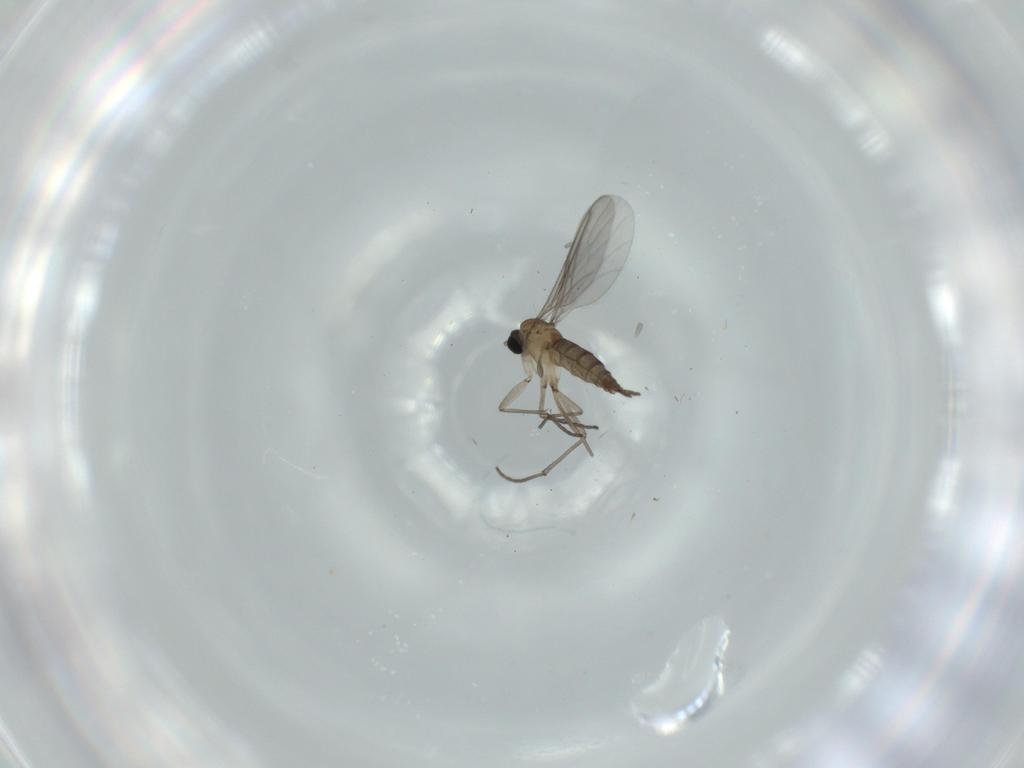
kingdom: Animalia
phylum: Arthropoda
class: Insecta
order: Diptera
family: Sciaridae
